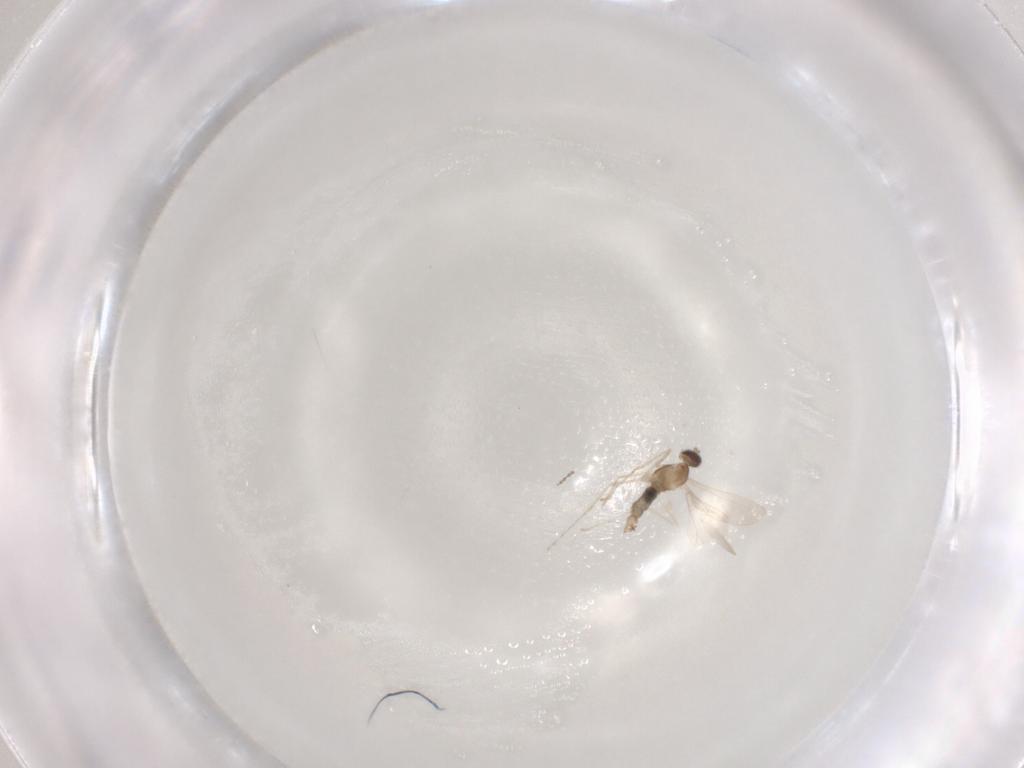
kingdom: Animalia
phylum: Arthropoda
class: Insecta
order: Diptera
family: Cecidomyiidae
